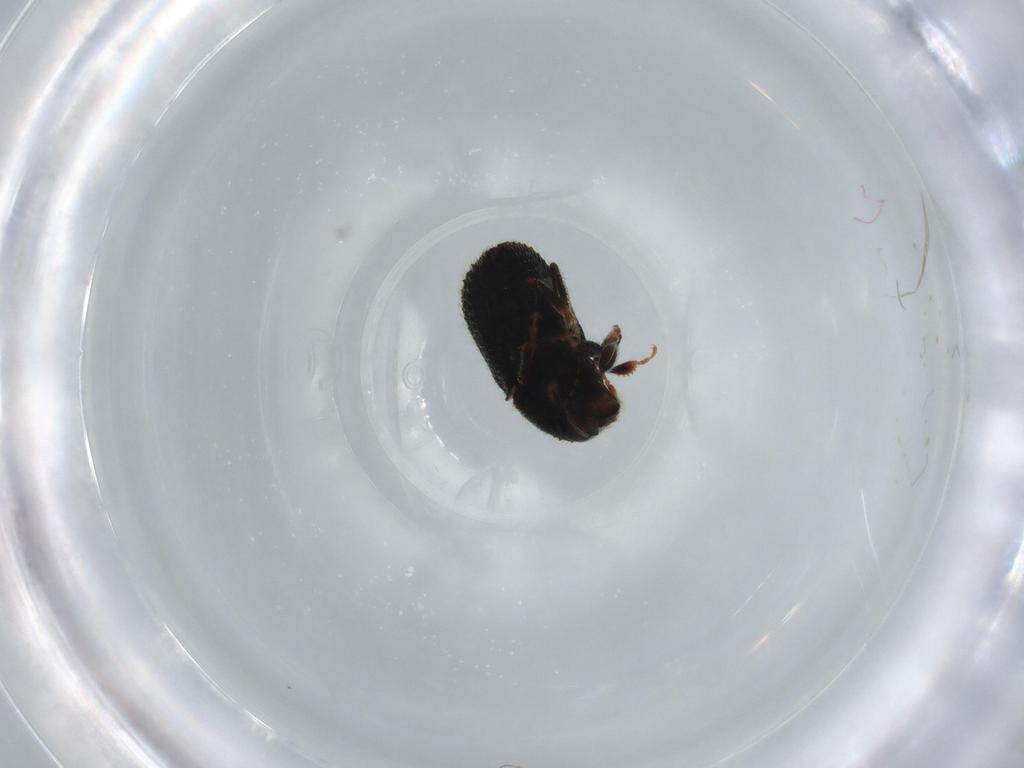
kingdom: Animalia
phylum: Arthropoda
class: Insecta
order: Coleoptera
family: Curculionidae
